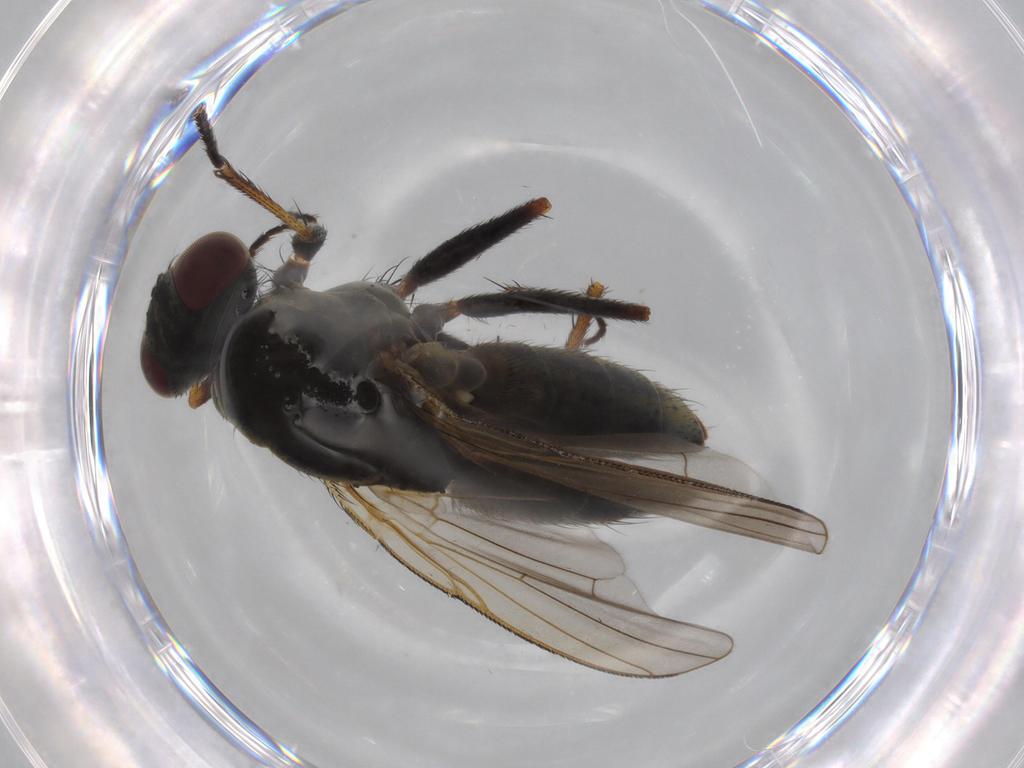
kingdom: Animalia
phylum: Arthropoda
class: Insecta
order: Diptera
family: Muscidae
